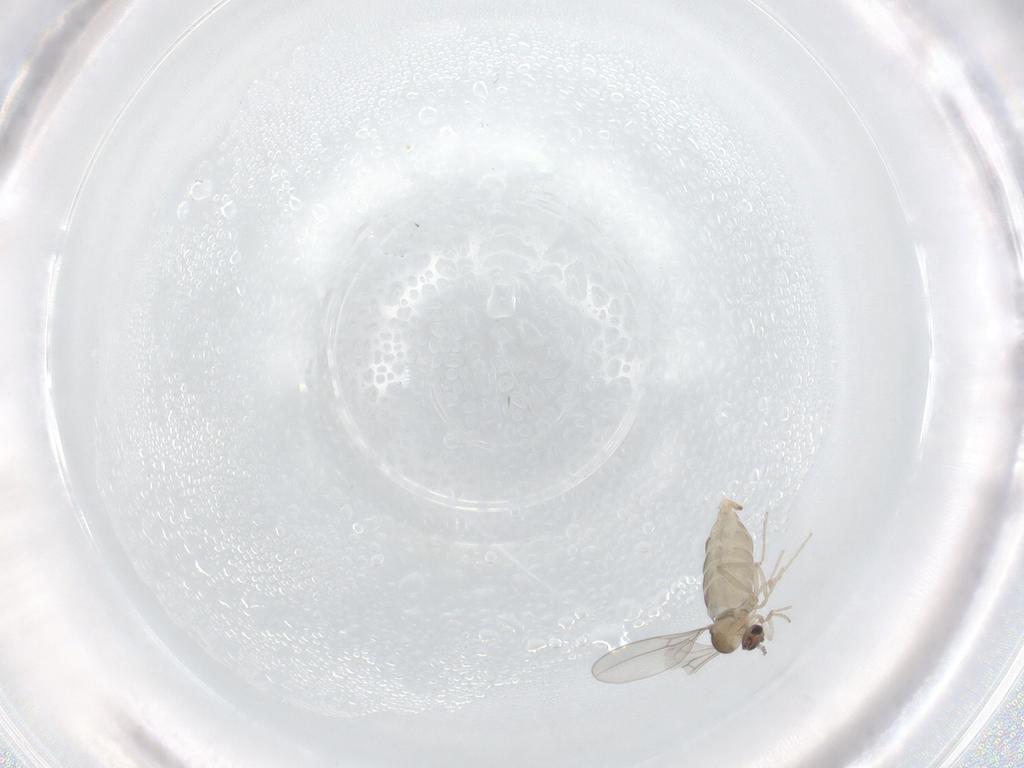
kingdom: Animalia
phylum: Arthropoda
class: Insecta
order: Diptera
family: Cecidomyiidae
